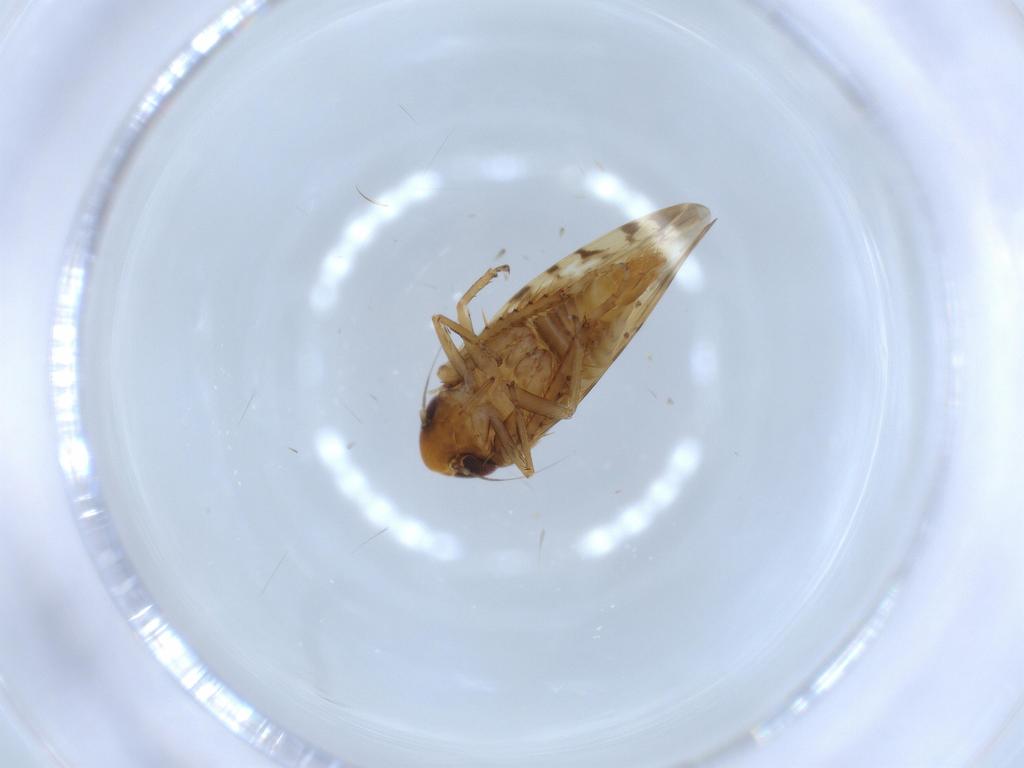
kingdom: Animalia
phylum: Arthropoda
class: Insecta
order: Hemiptera
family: Cicadellidae
